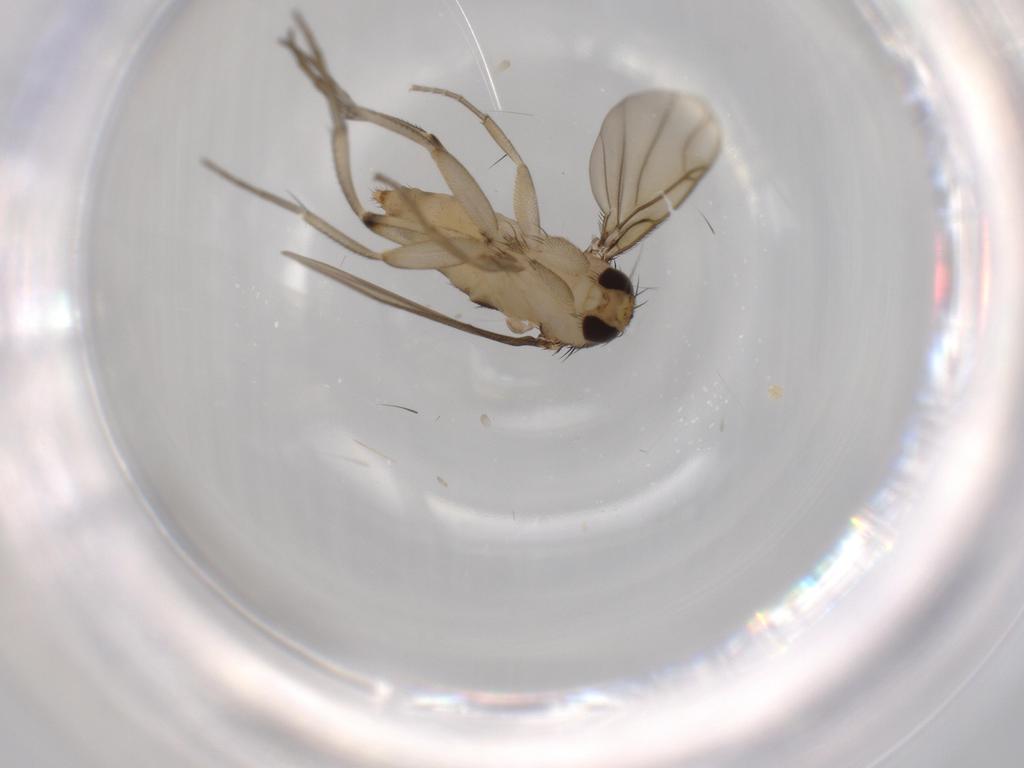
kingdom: Animalia
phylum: Arthropoda
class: Insecta
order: Diptera
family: Phoridae
